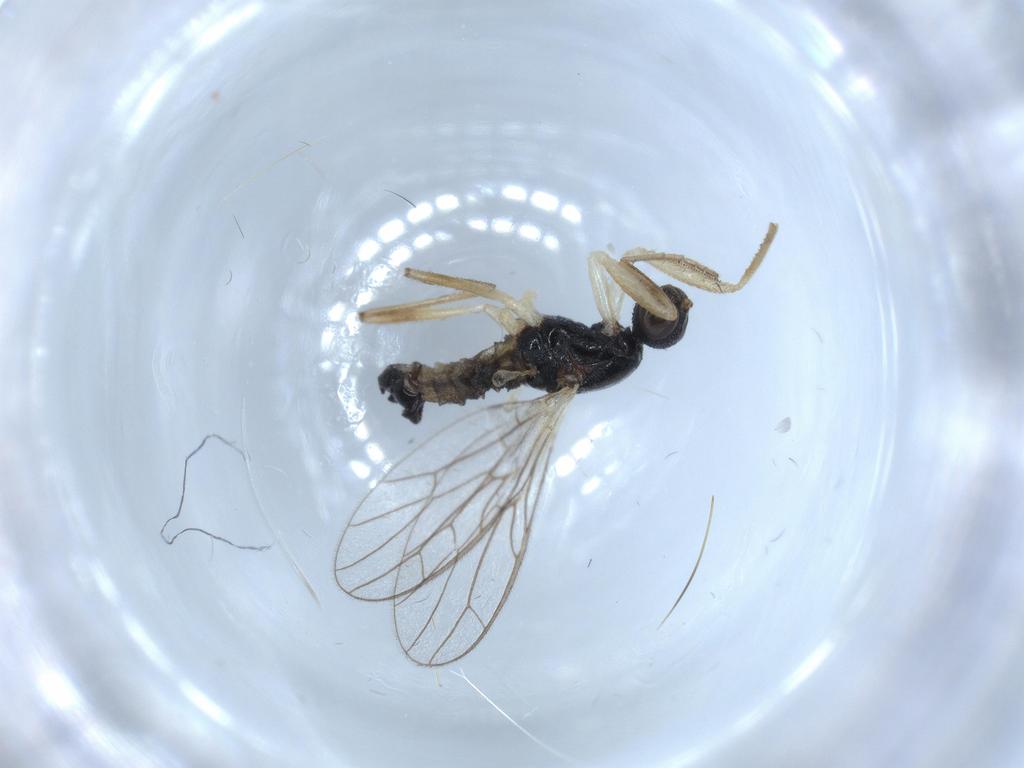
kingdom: Animalia
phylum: Arthropoda
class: Insecta
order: Diptera
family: Empididae
